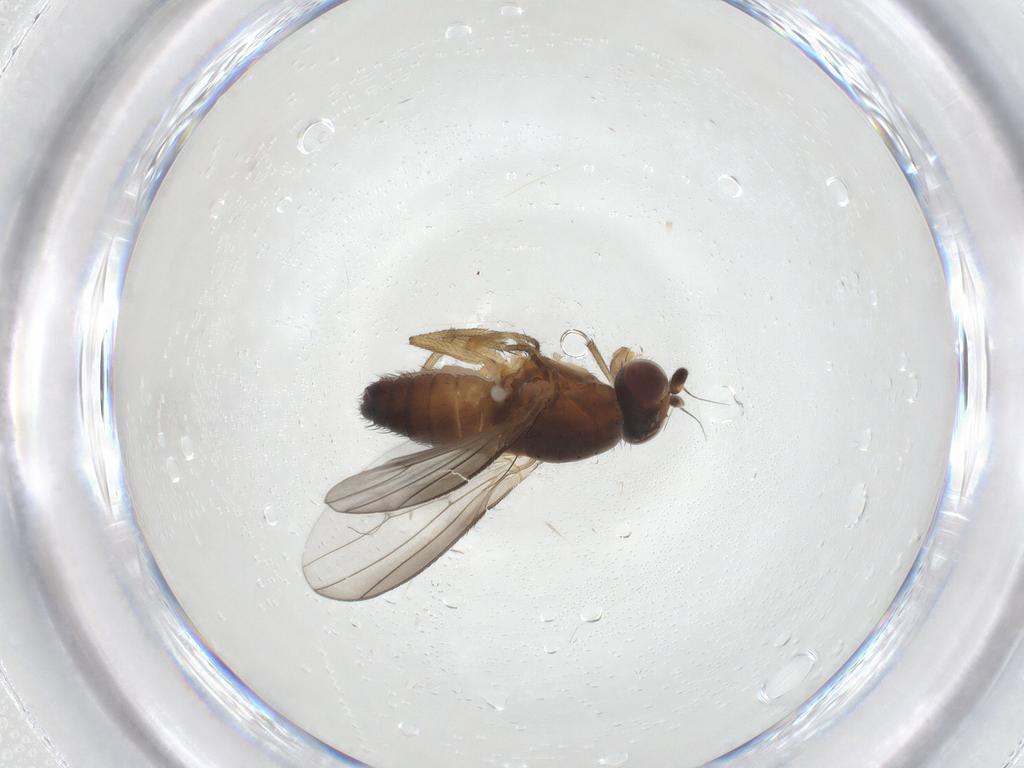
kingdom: Animalia
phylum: Arthropoda
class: Insecta
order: Diptera
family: Heleomyzidae
